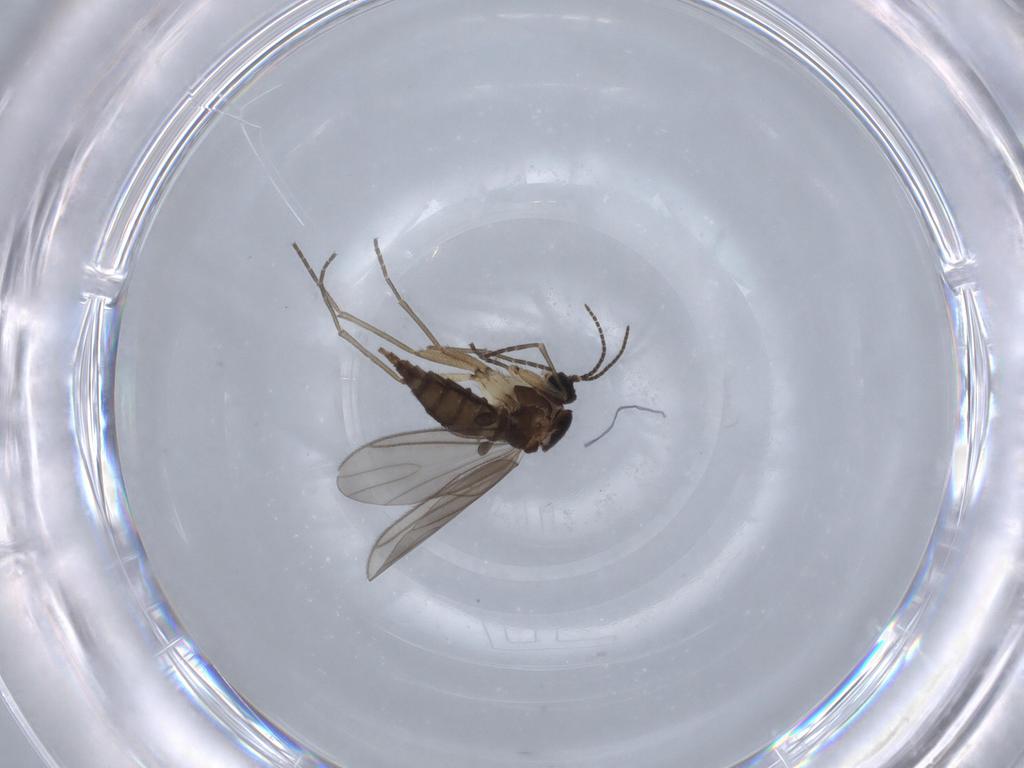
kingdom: Animalia
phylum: Arthropoda
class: Insecta
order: Diptera
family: Sciaridae
